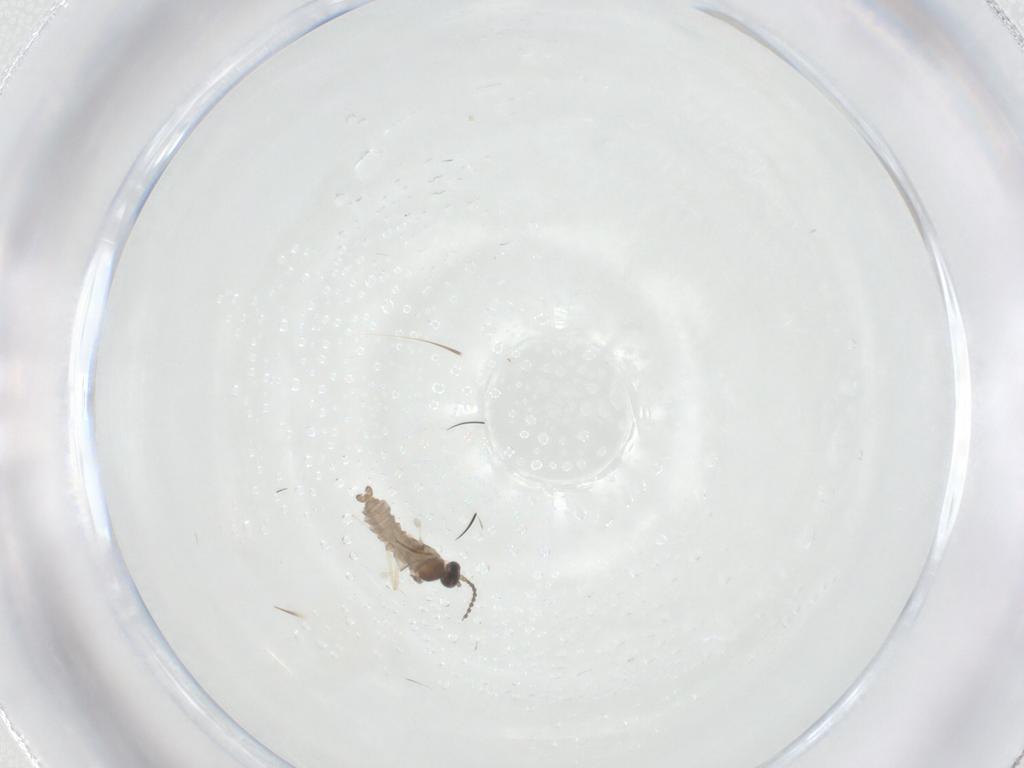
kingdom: Animalia
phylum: Arthropoda
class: Insecta
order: Diptera
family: Cecidomyiidae
